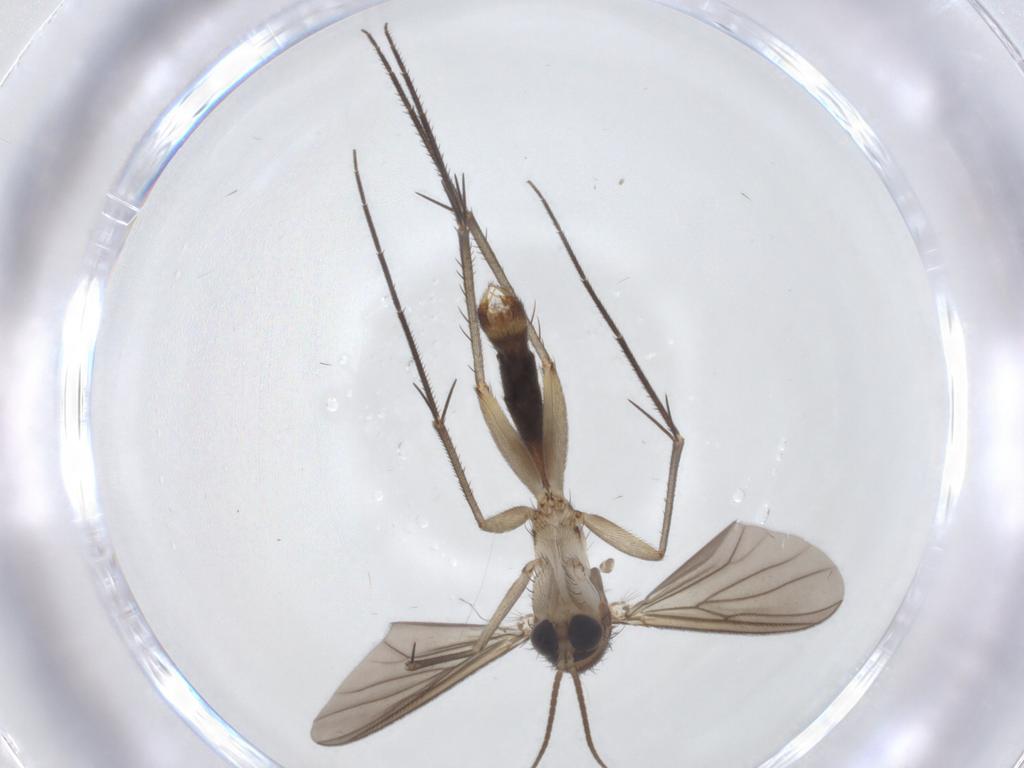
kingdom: Animalia
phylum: Arthropoda
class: Insecta
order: Diptera
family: Mycetophilidae
